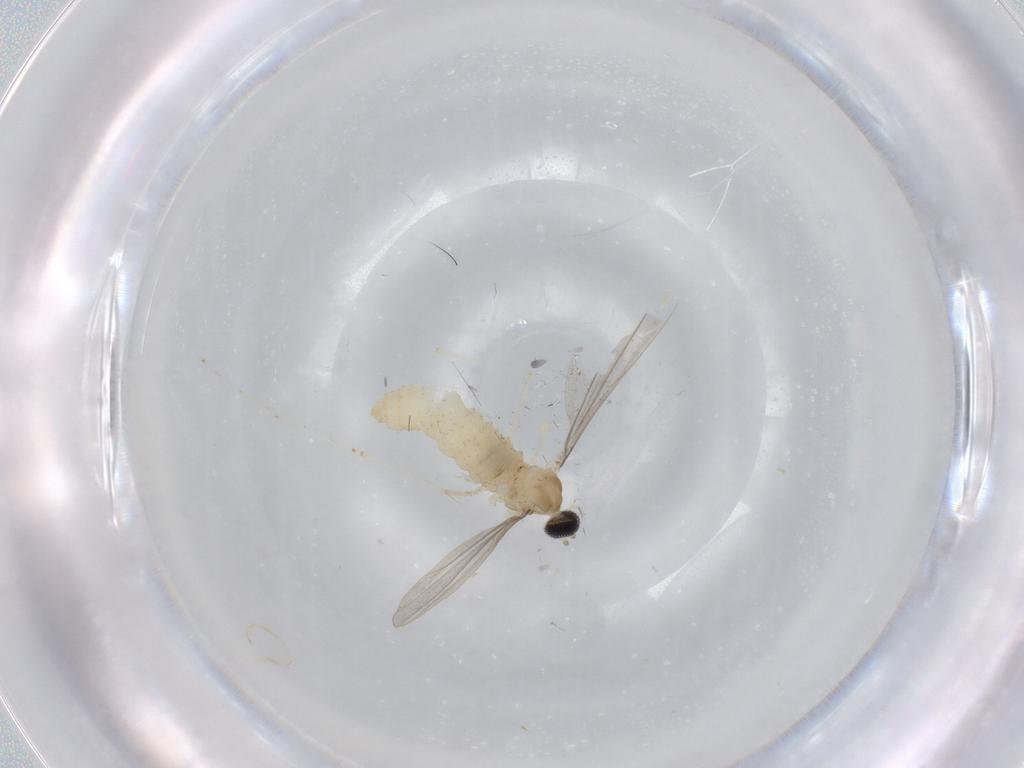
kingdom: Animalia
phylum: Arthropoda
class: Insecta
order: Diptera
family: Cecidomyiidae
